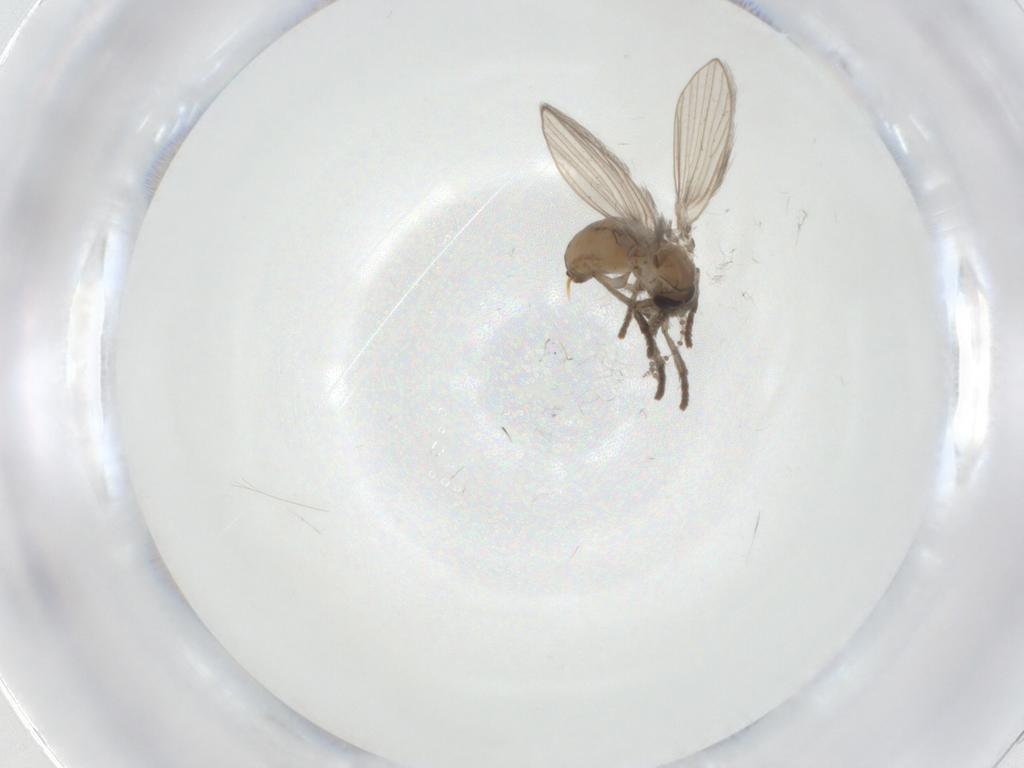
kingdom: Animalia
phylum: Arthropoda
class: Insecta
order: Diptera
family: Psychodidae
